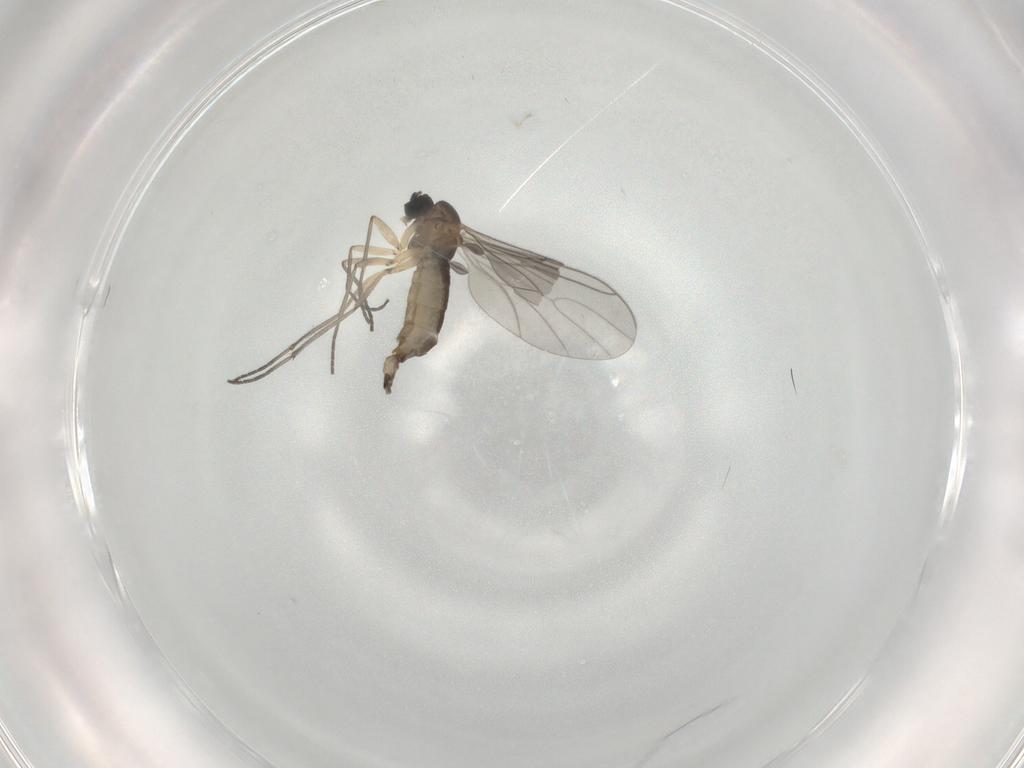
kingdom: Animalia
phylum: Arthropoda
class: Insecta
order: Diptera
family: Sciaridae
